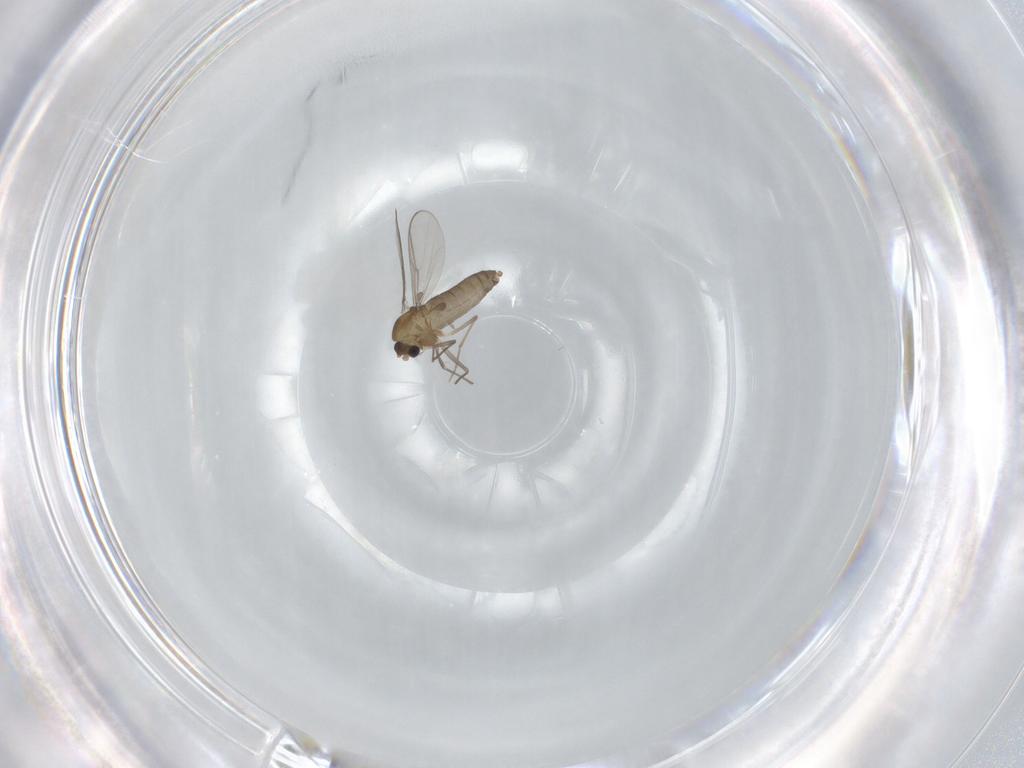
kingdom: Animalia
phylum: Arthropoda
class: Insecta
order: Diptera
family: Chironomidae
